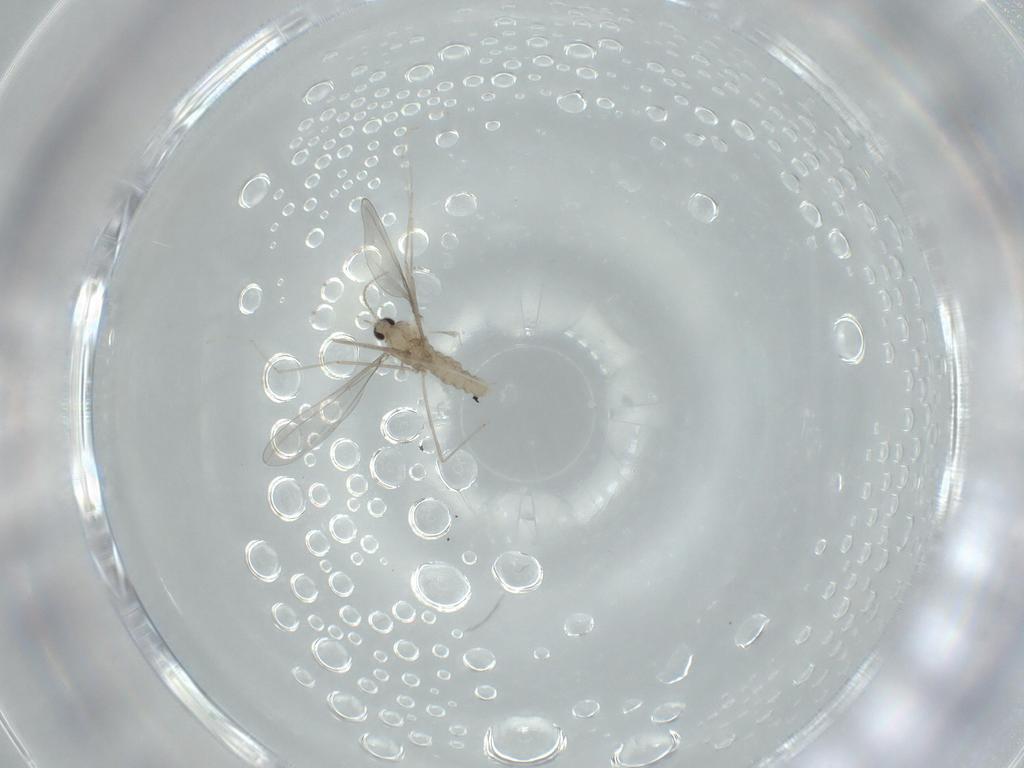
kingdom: Animalia
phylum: Arthropoda
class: Insecta
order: Diptera
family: Cecidomyiidae
